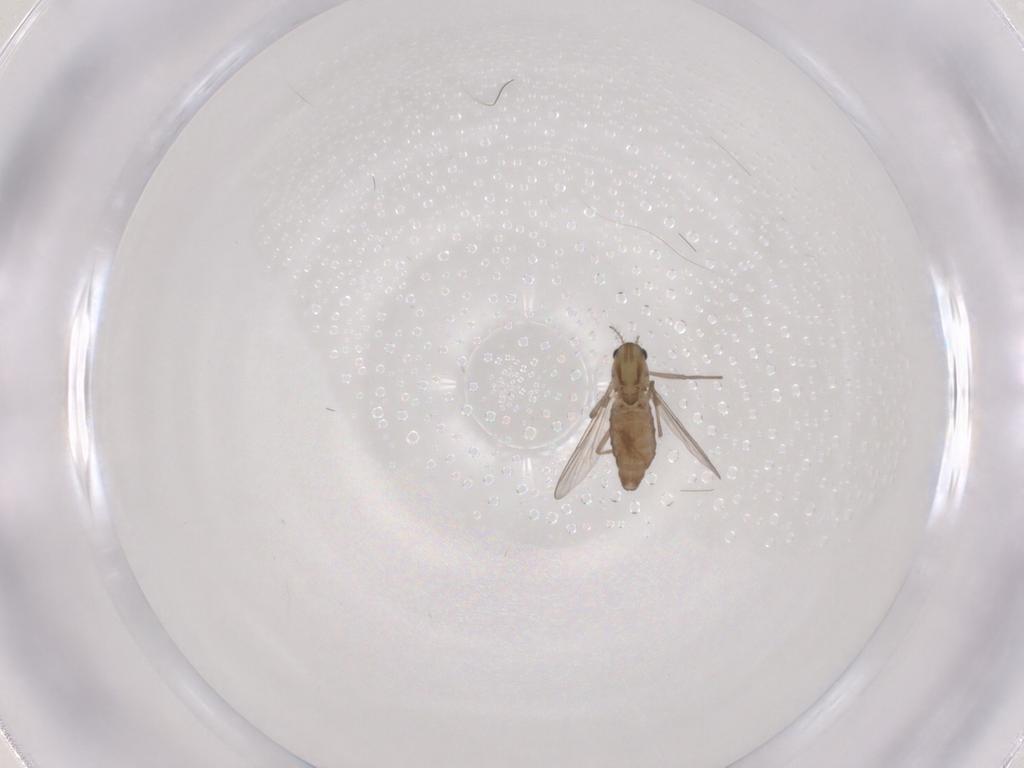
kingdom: Animalia
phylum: Arthropoda
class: Insecta
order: Diptera
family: Chironomidae
